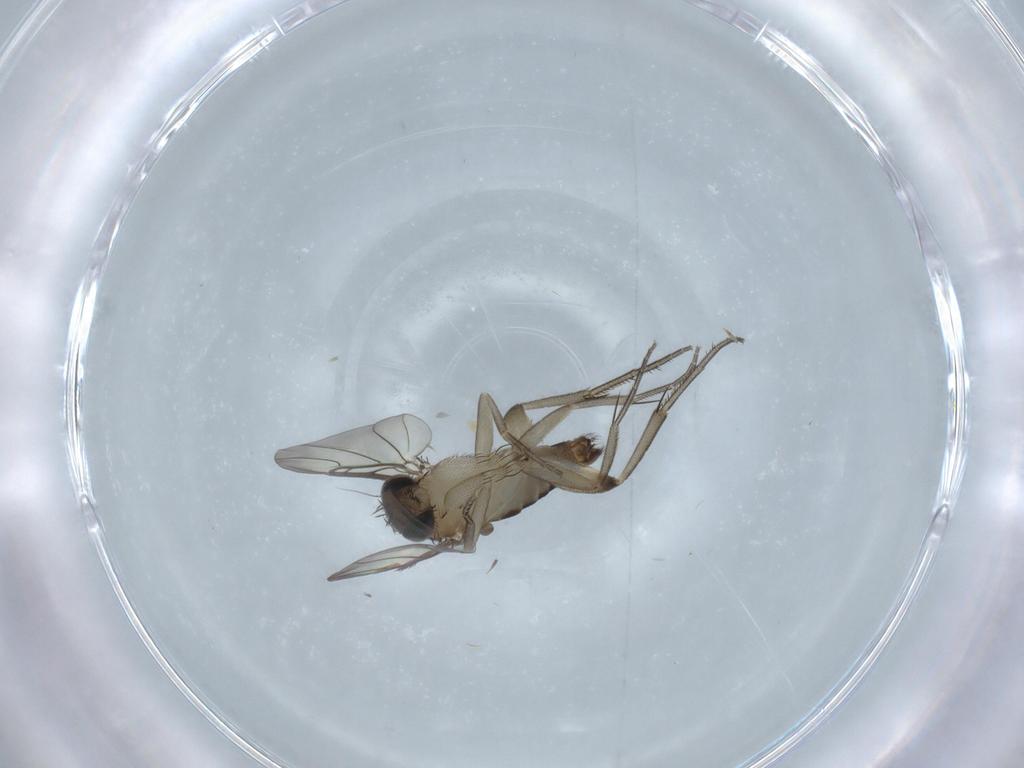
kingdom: Animalia
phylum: Arthropoda
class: Insecta
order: Diptera
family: Phoridae
